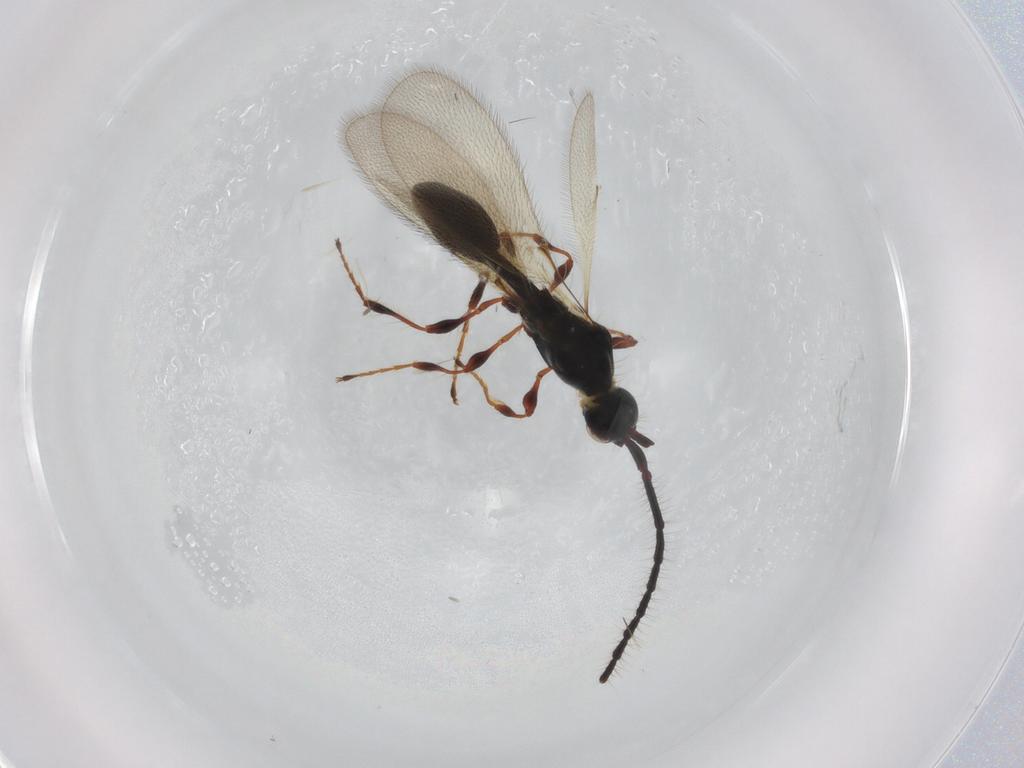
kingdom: Animalia
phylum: Arthropoda
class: Insecta
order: Hymenoptera
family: Diapriidae
